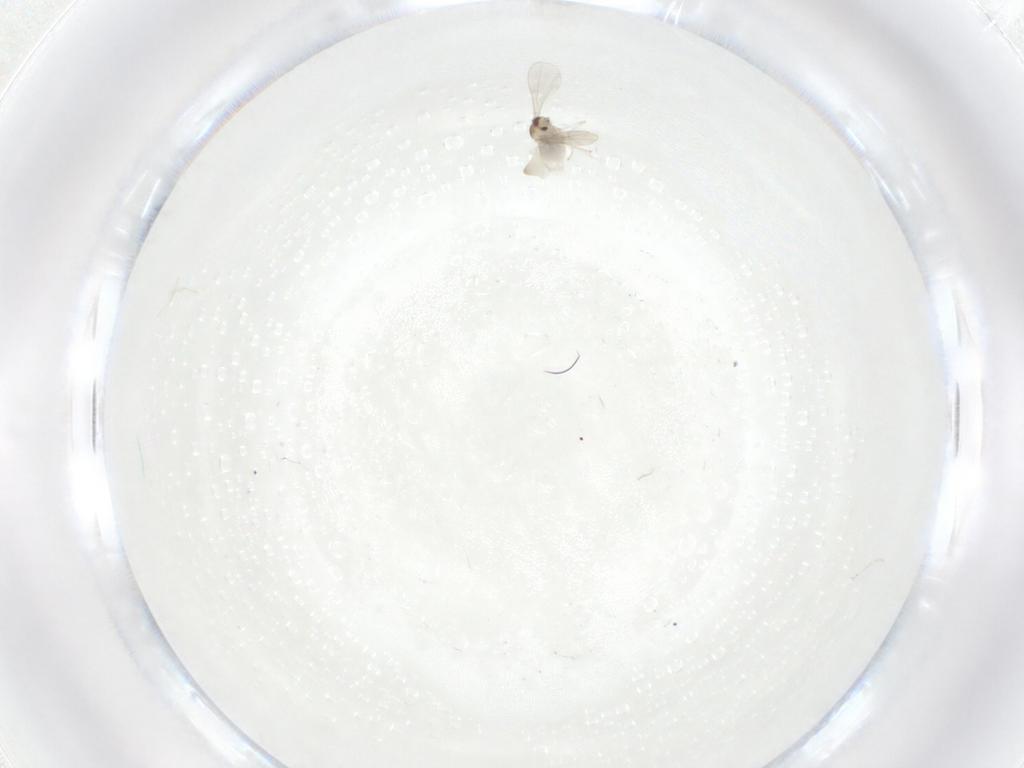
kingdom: Animalia
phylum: Arthropoda
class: Insecta
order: Diptera
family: Cecidomyiidae
